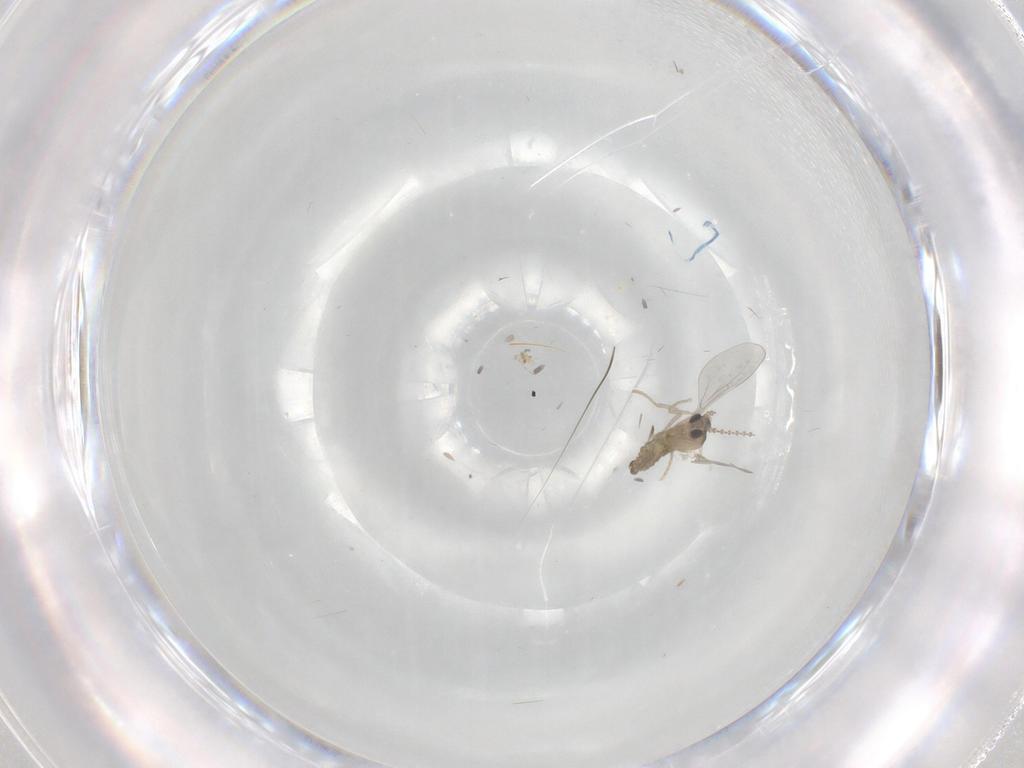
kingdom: Animalia
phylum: Arthropoda
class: Insecta
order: Diptera
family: Cecidomyiidae
